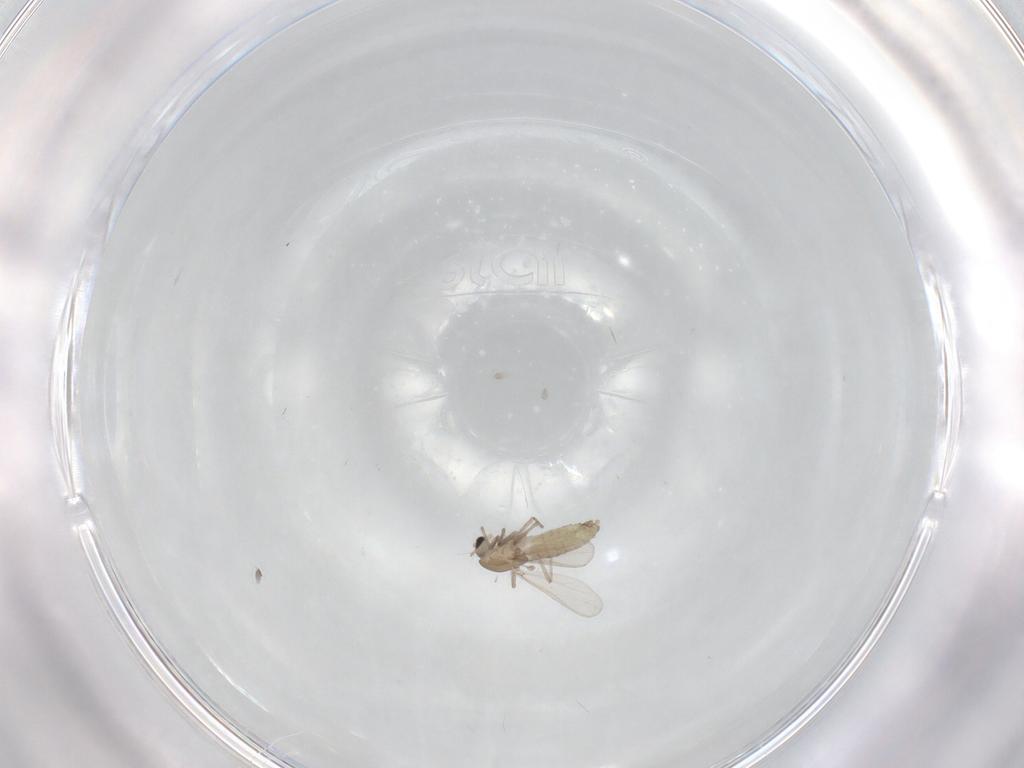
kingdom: Animalia
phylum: Arthropoda
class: Insecta
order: Diptera
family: Chironomidae
